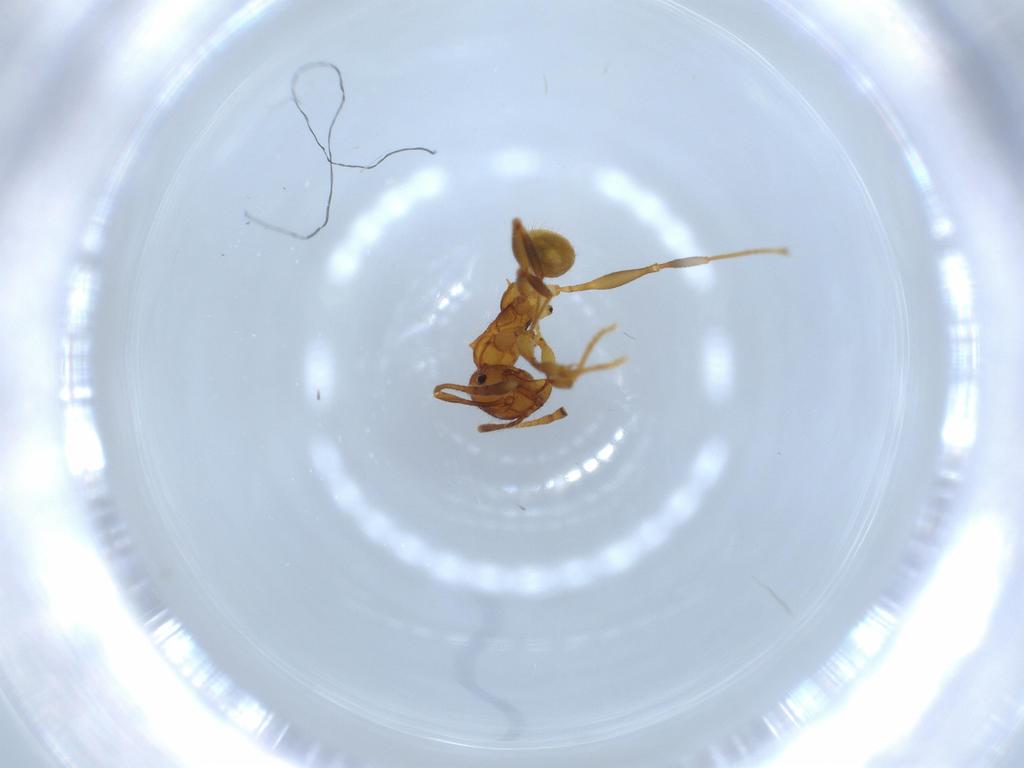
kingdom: Animalia
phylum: Arthropoda
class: Insecta
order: Hymenoptera
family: Formicidae
